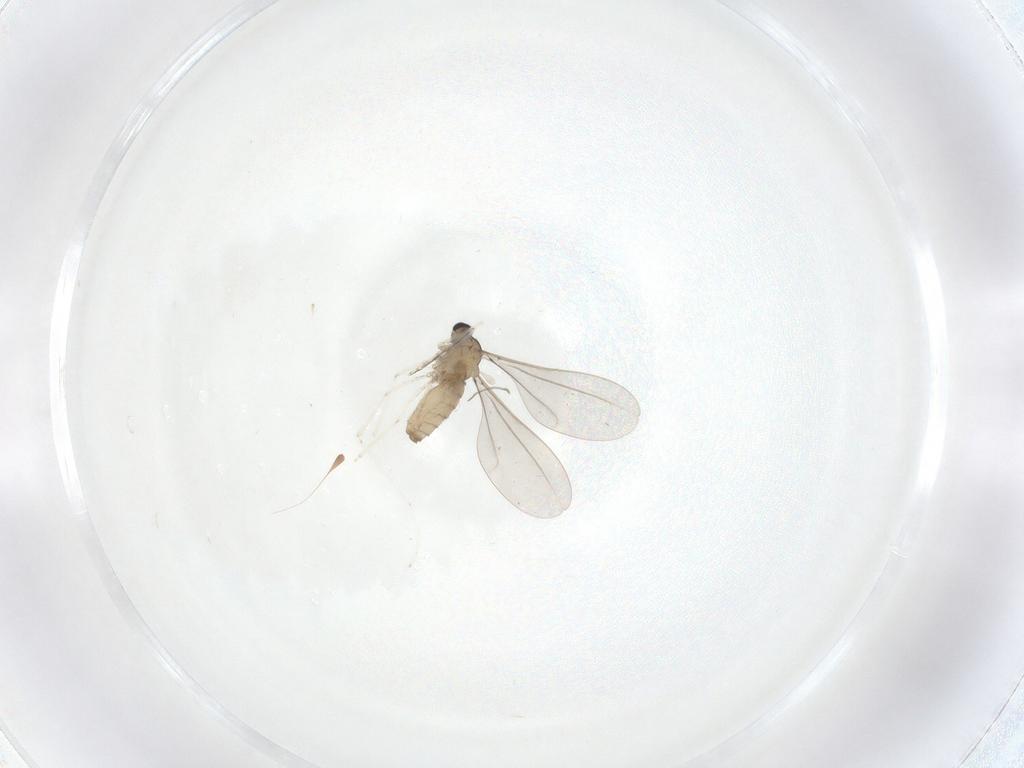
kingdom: Animalia
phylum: Arthropoda
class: Insecta
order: Diptera
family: Cecidomyiidae
